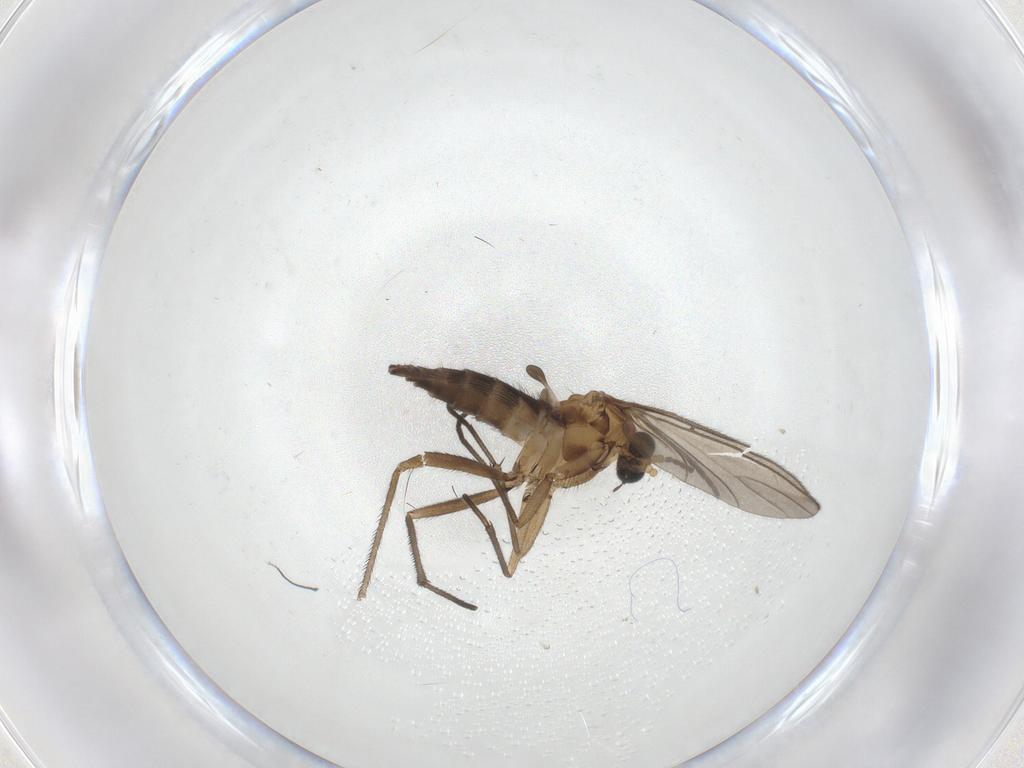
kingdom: Animalia
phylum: Arthropoda
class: Insecta
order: Diptera
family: Sciaridae
